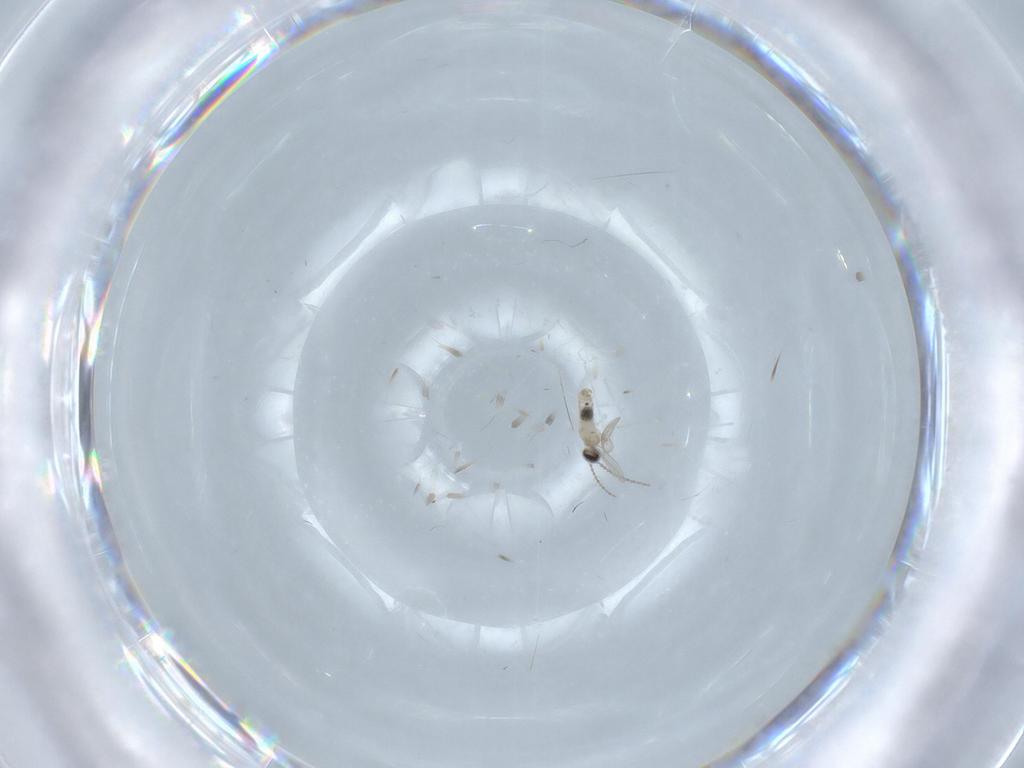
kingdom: Animalia
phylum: Arthropoda
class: Insecta
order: Diptera
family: Cecidomyiidae
